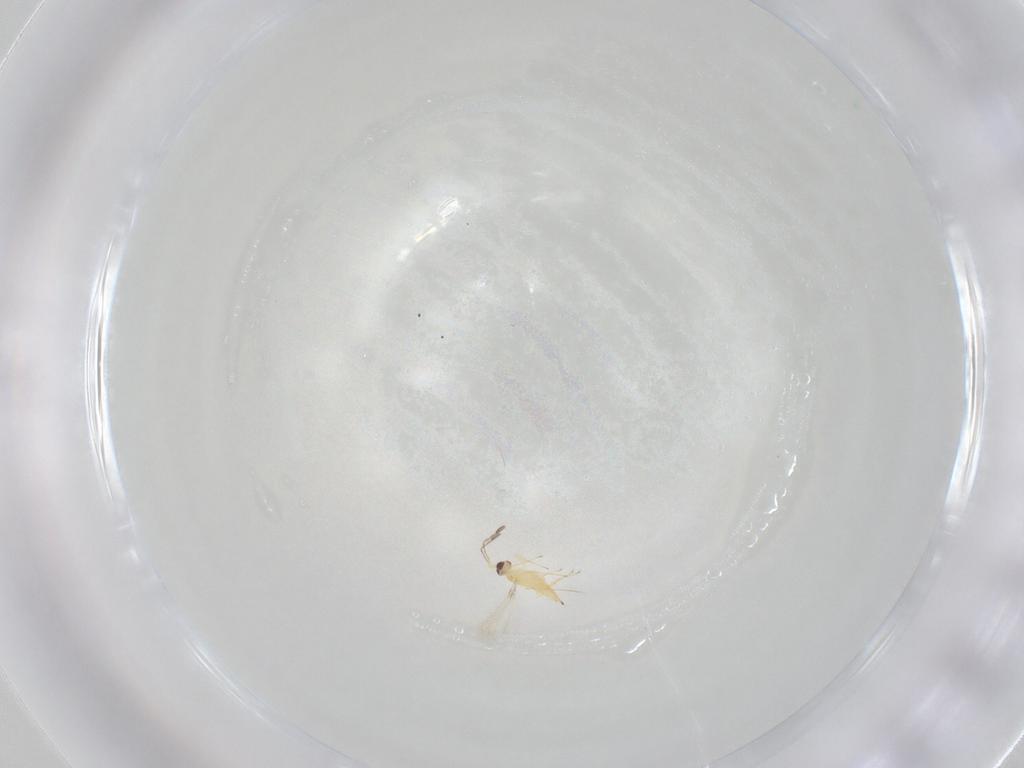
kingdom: Animalia
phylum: Arthropoda
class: Insecta
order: Hymenoptera
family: Mymaridae
